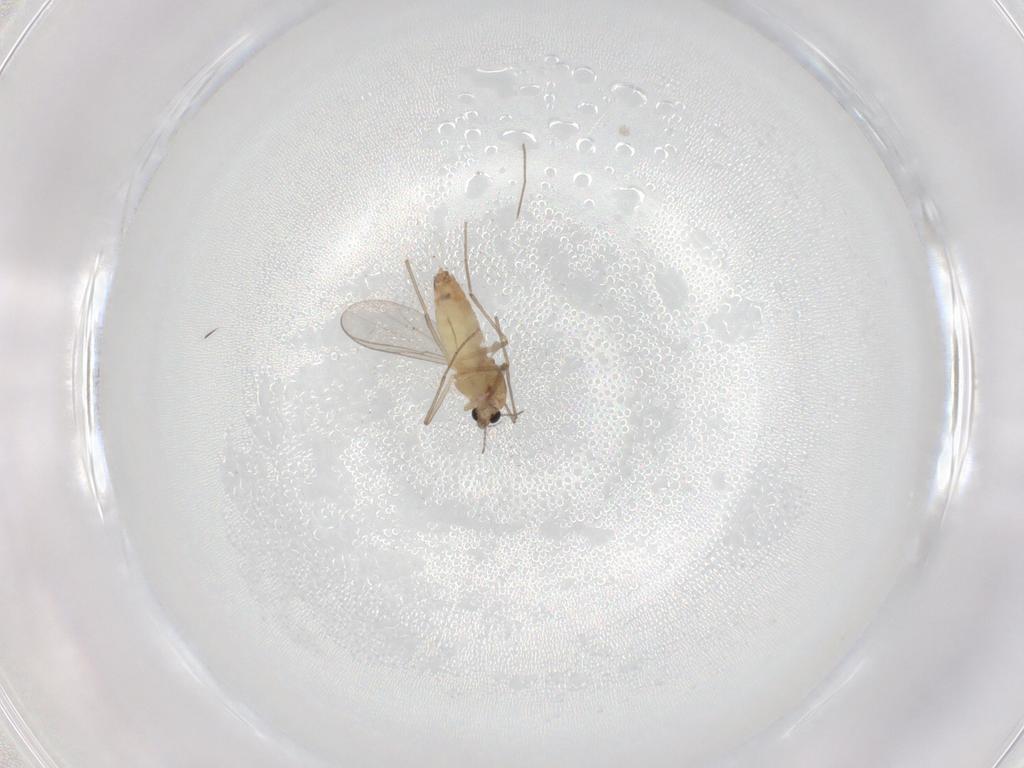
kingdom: Animalia
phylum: Arthropoda
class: Insecta
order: Diptera
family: Chironomidae
